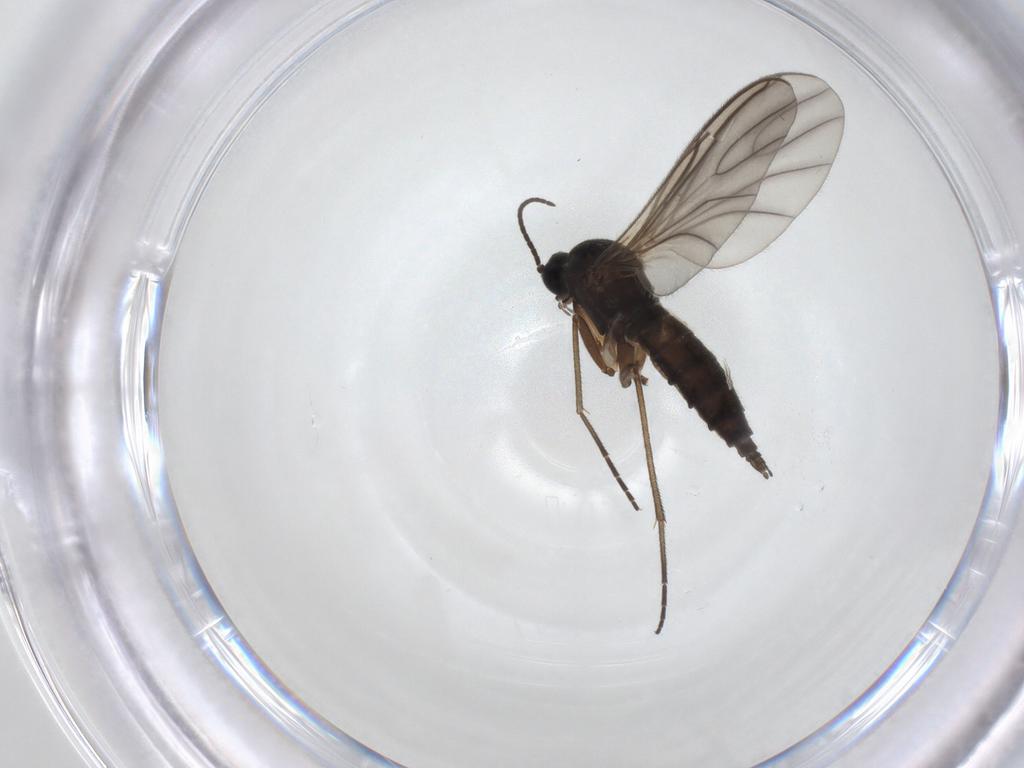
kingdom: Animalia
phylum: Arthropoda
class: Insecta
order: Diptera
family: Sciaridae
